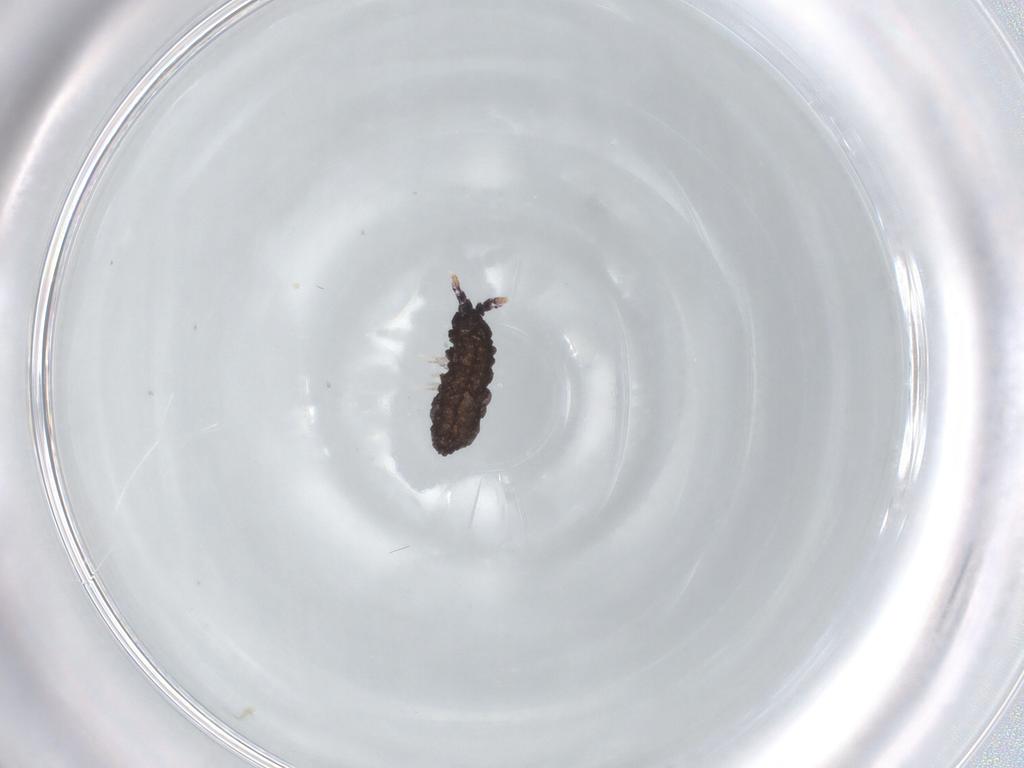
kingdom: Animalia
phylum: Arthropoda
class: Collembola
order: Poduromorpha
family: Neanuridae
